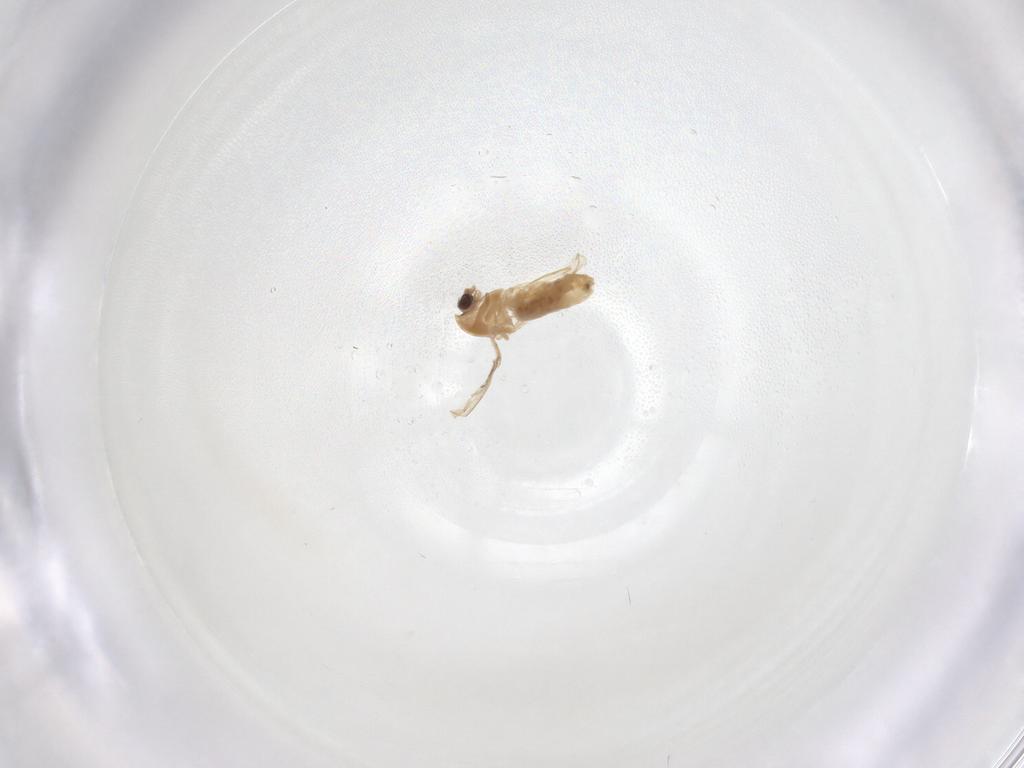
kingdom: Animalia
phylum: Arthropoda
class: Insecta
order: Diptera
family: Chironomidae
